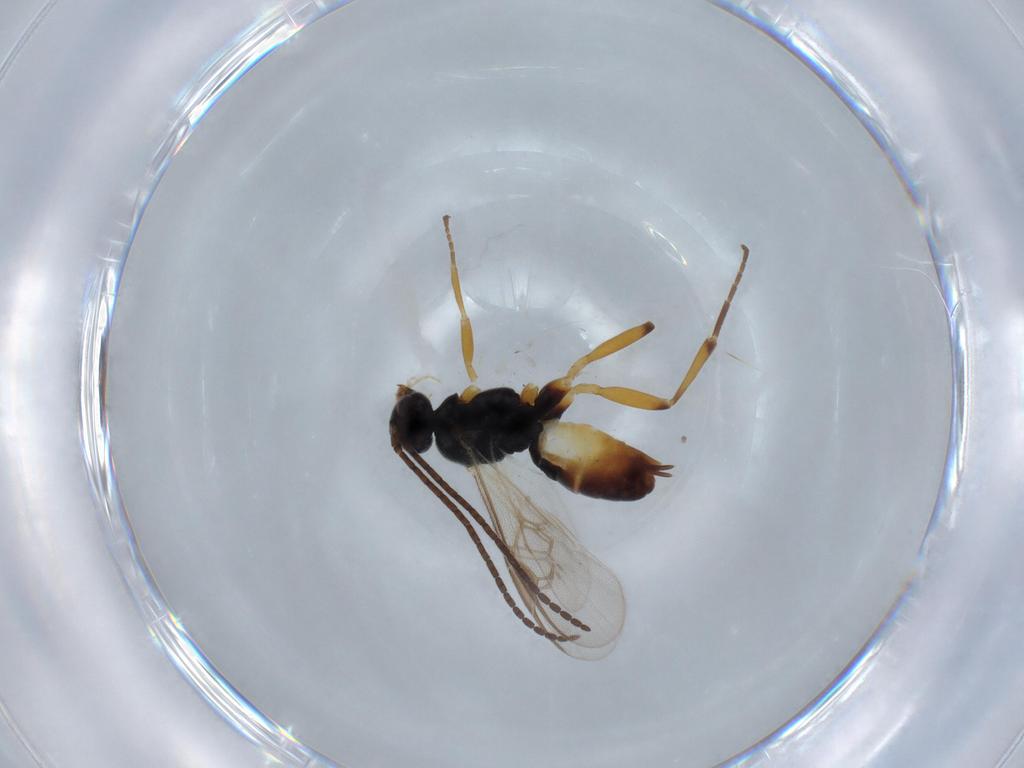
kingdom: Animalia
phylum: Arthropoda
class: Insecta
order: Hymenoptera
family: Braconidae
